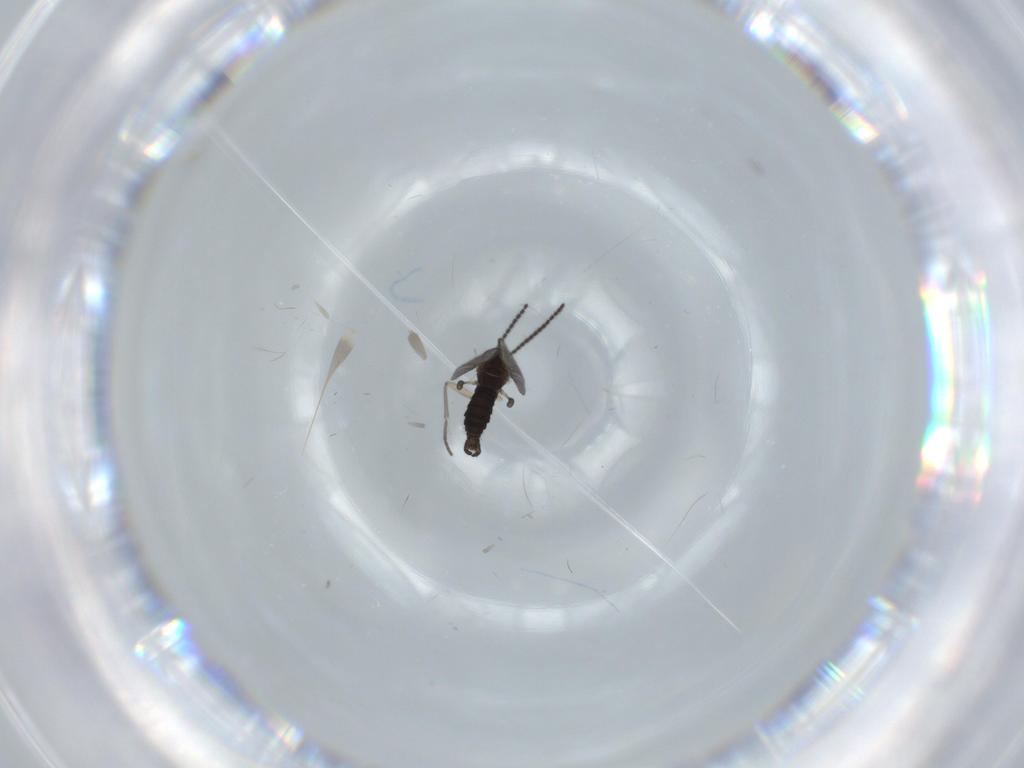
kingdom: Animalia
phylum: Arthropoda
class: Insecta
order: Diptera
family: Sciaridae
